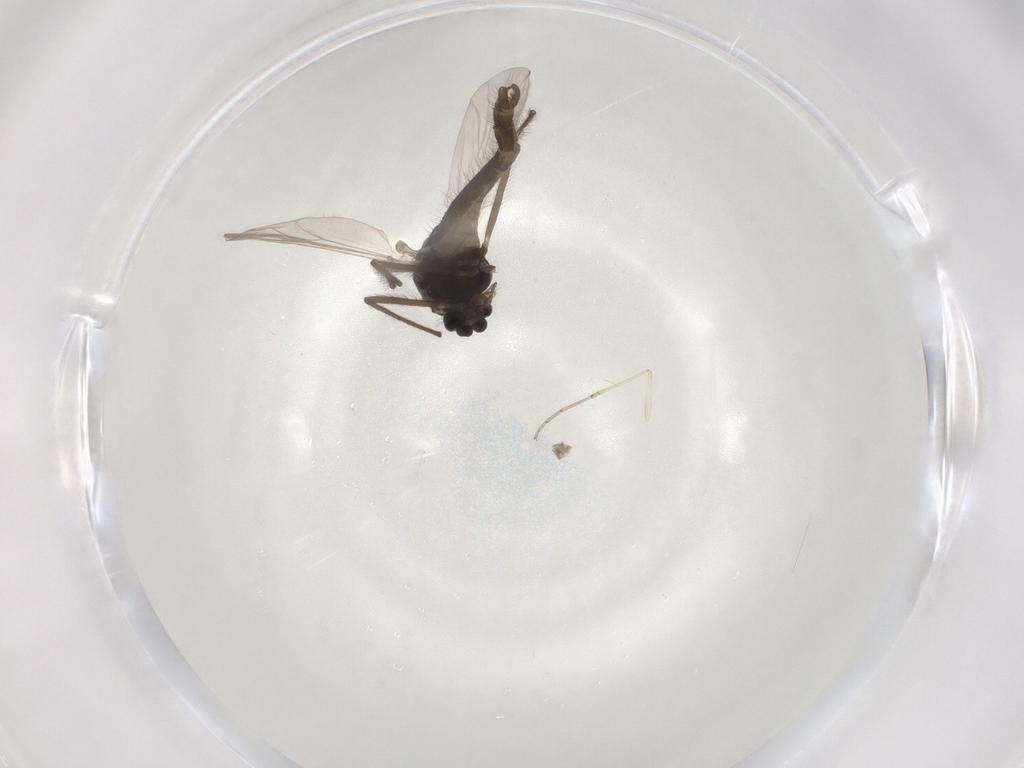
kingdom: Animalia
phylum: Arthropoda
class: Insecta
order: Diptera
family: Cecidomyiidae
